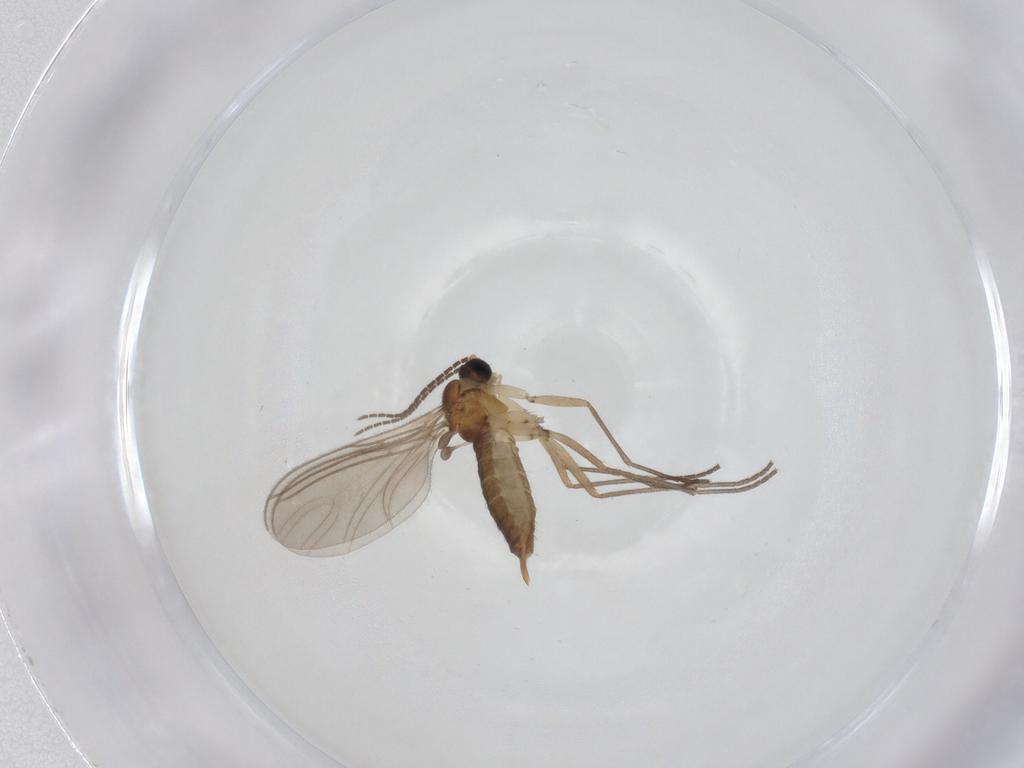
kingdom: Animalia
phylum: Arthropoda
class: Insecta
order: Diptera
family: Sciaridae
